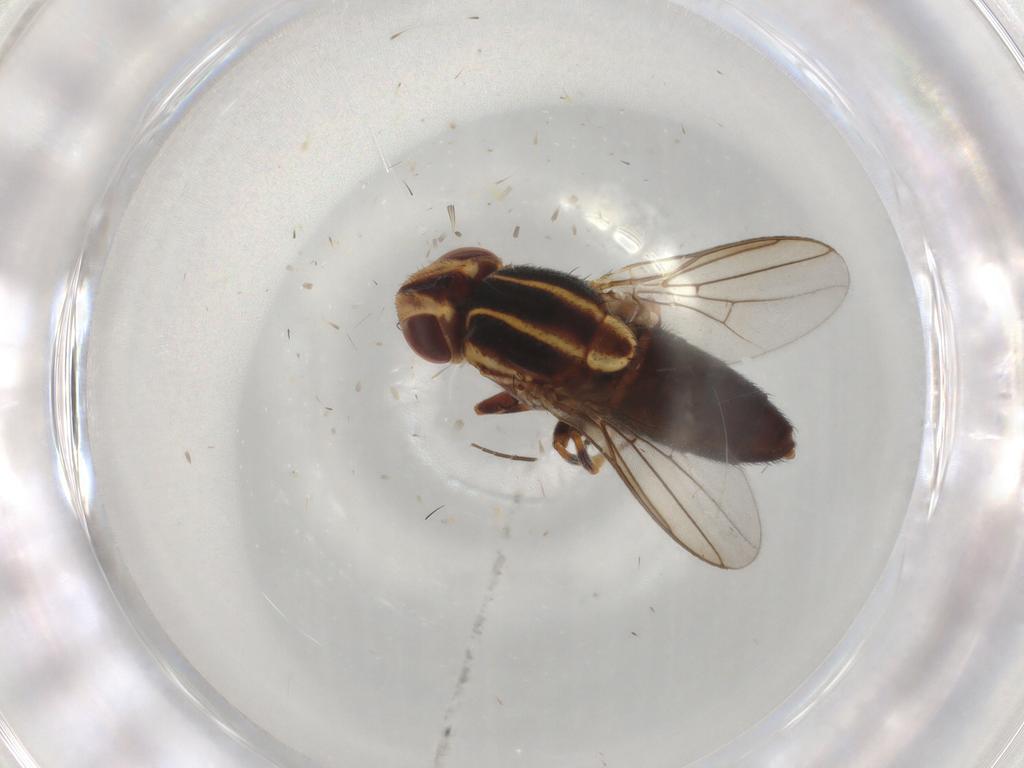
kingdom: Animalia
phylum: Arthropoda
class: Insecta
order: Diptera
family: Chloropidae
